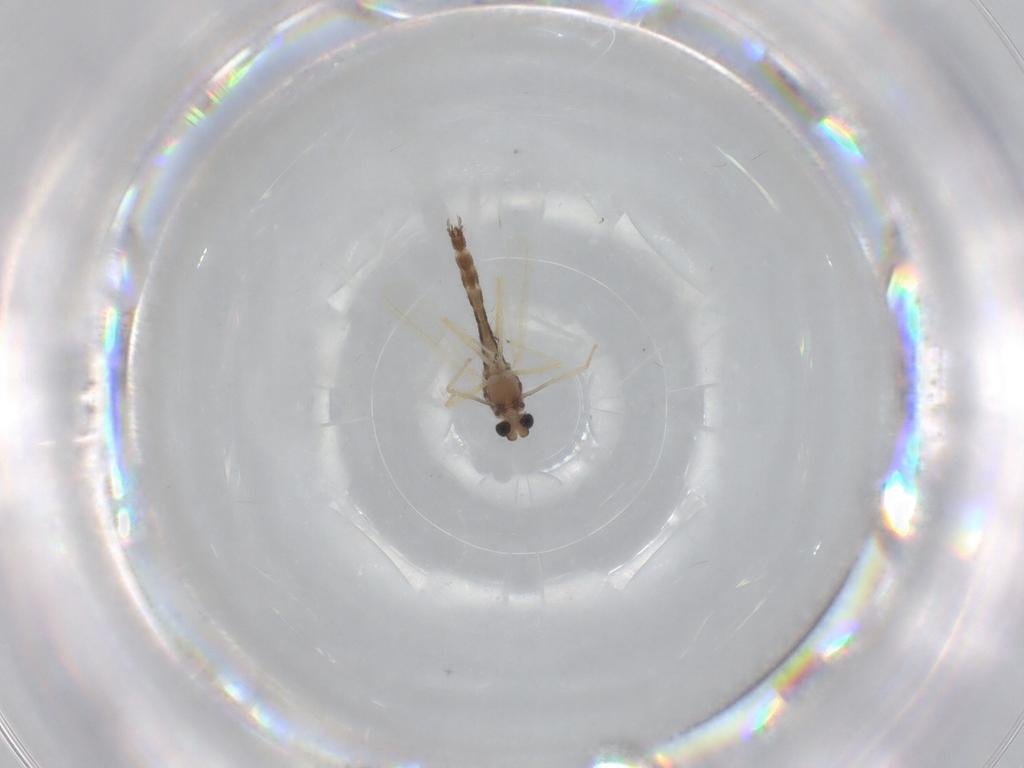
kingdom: Animalia
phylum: Arthropoda
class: Insecta
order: Diptera
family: Chironomidae
